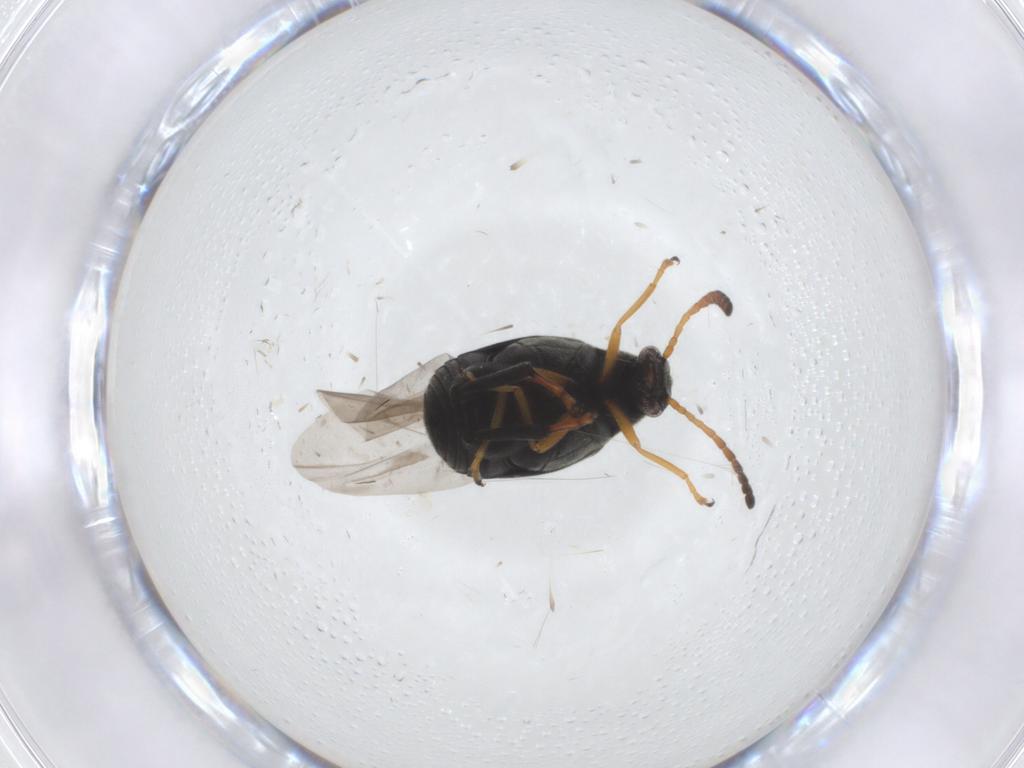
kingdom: Animalia
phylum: Arthropoda
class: Insecta
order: Coleoptera
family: Chrysomelidae
